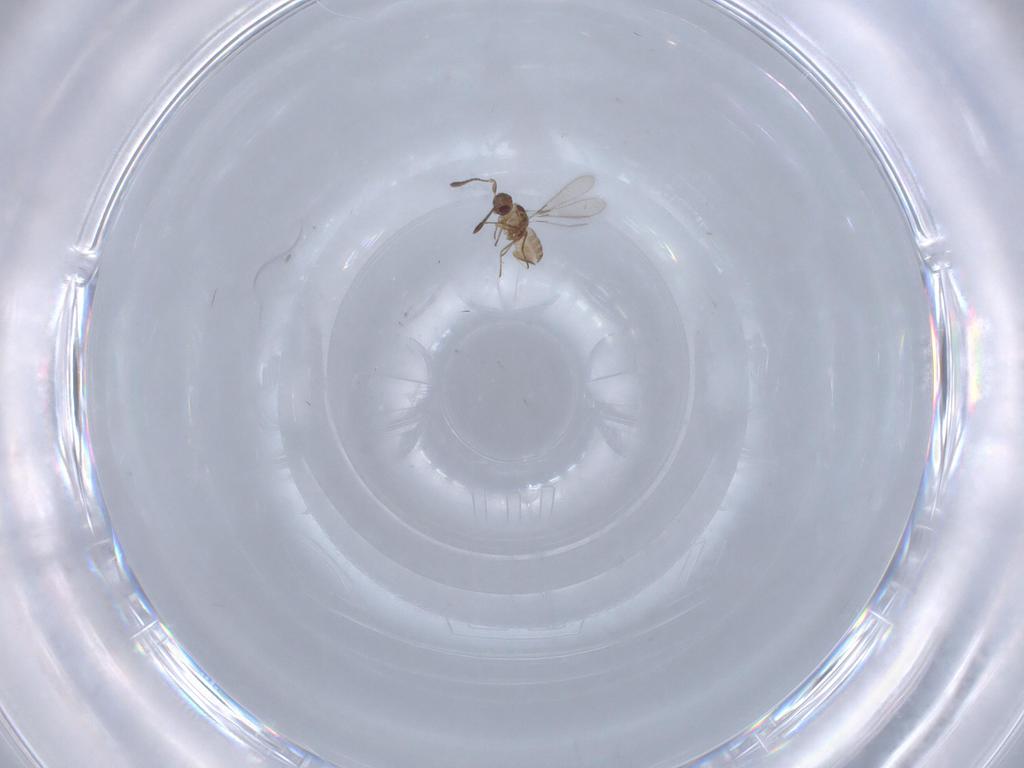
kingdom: Animalia
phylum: Arthropoda
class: Insecta
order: Hymenoptera
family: Mymaridae
